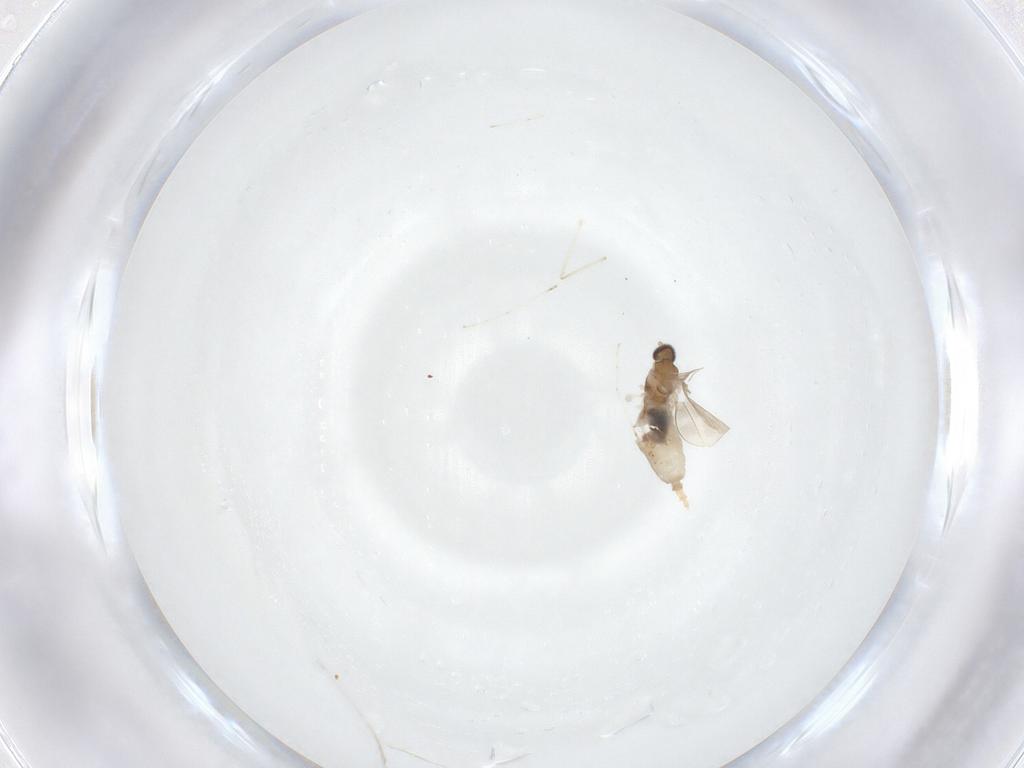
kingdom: Animalia
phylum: Arthropoda
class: Insecta
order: Diptera
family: Cecidomyiidae
